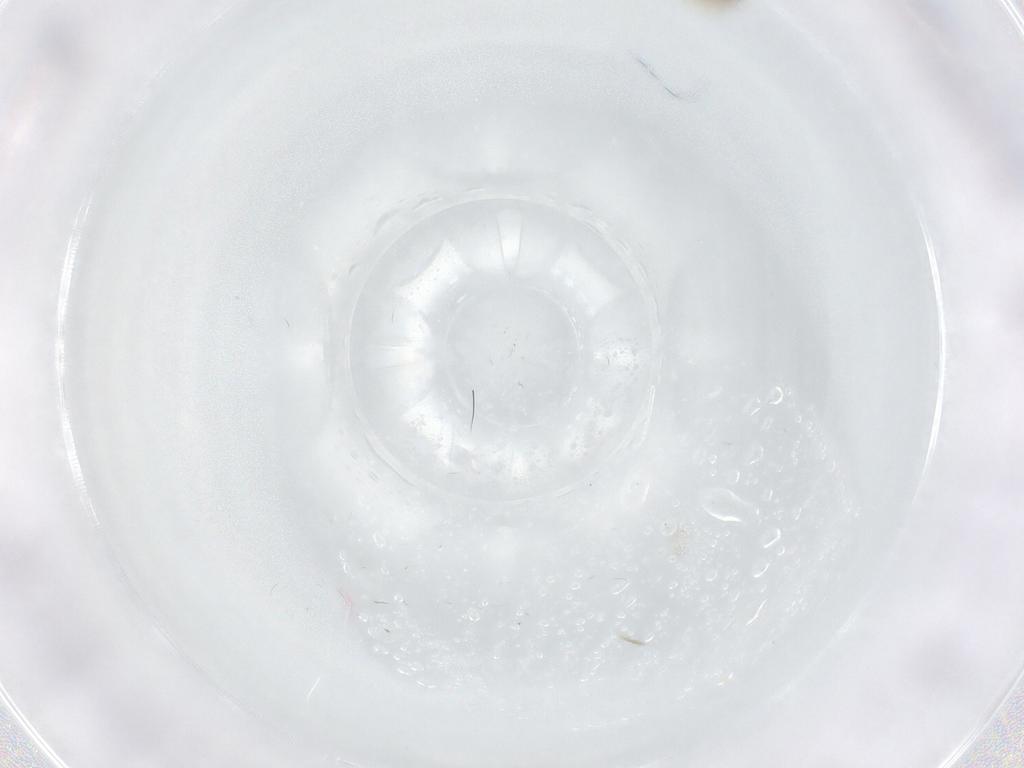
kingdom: Animalia
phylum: Arthropoda
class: Insecta
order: Diptera
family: Chironomidae
